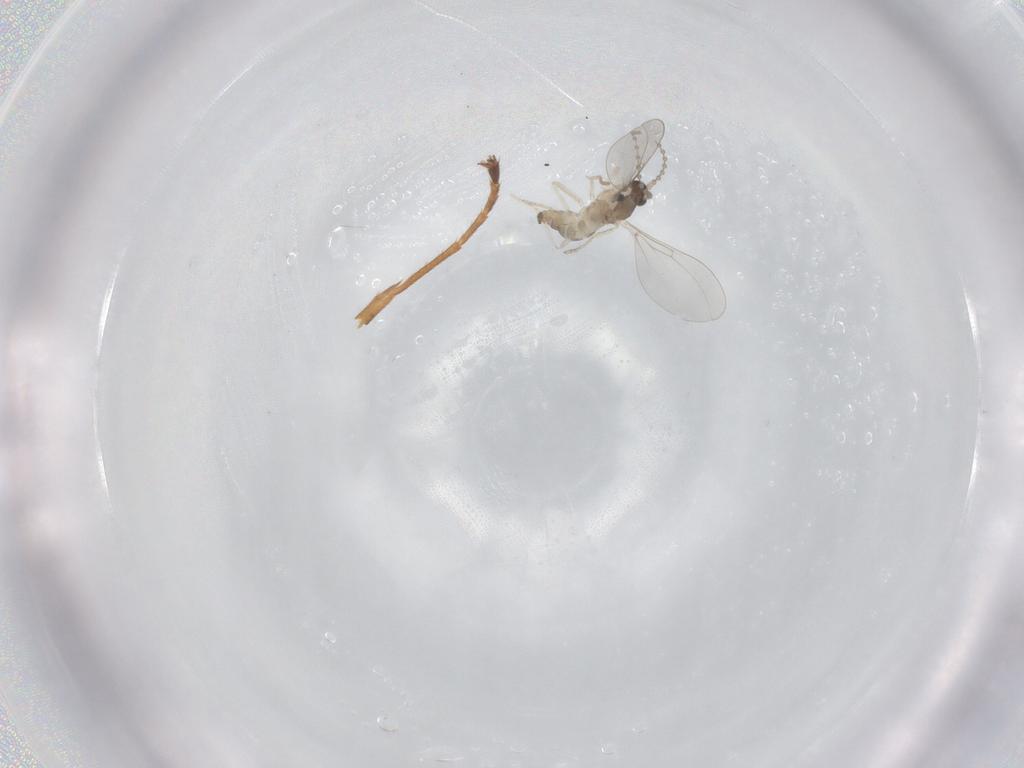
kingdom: Animalia
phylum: Arthropoda
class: Insecta
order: Diptera
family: Cecidomyiidae
